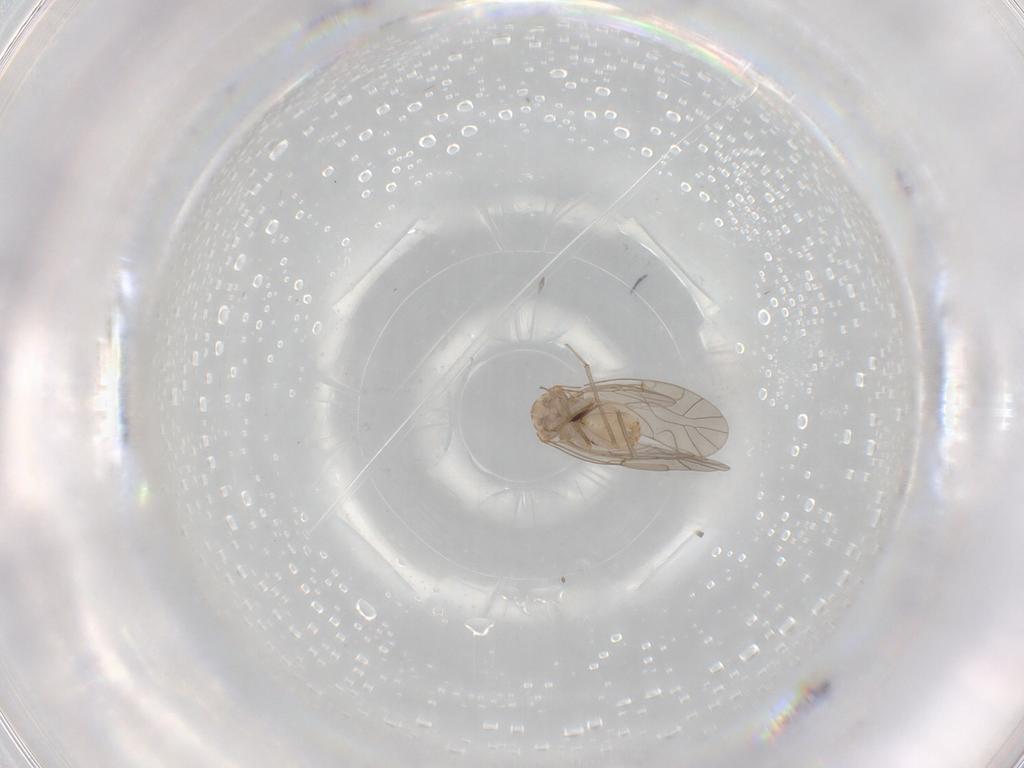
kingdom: Animalia
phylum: Arthropoda
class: Insecta
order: Psocodea
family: Lachesillidae
